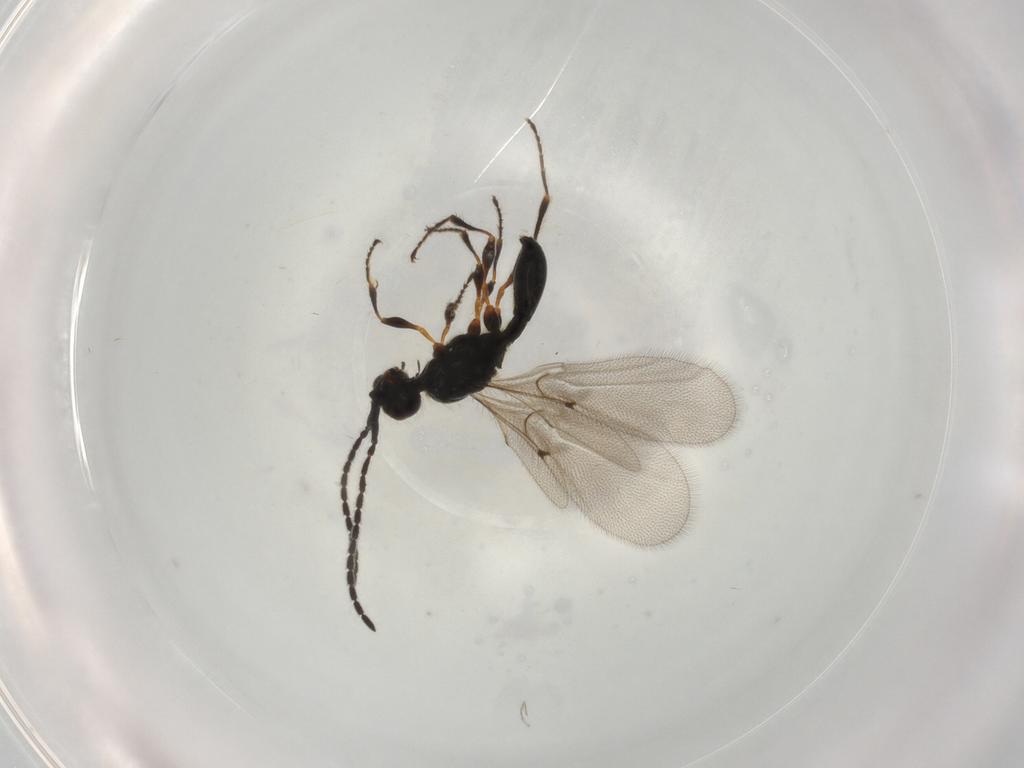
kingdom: Animalia
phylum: Arthropoda
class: Insecta
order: Hymenoptera
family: Diapriidae
